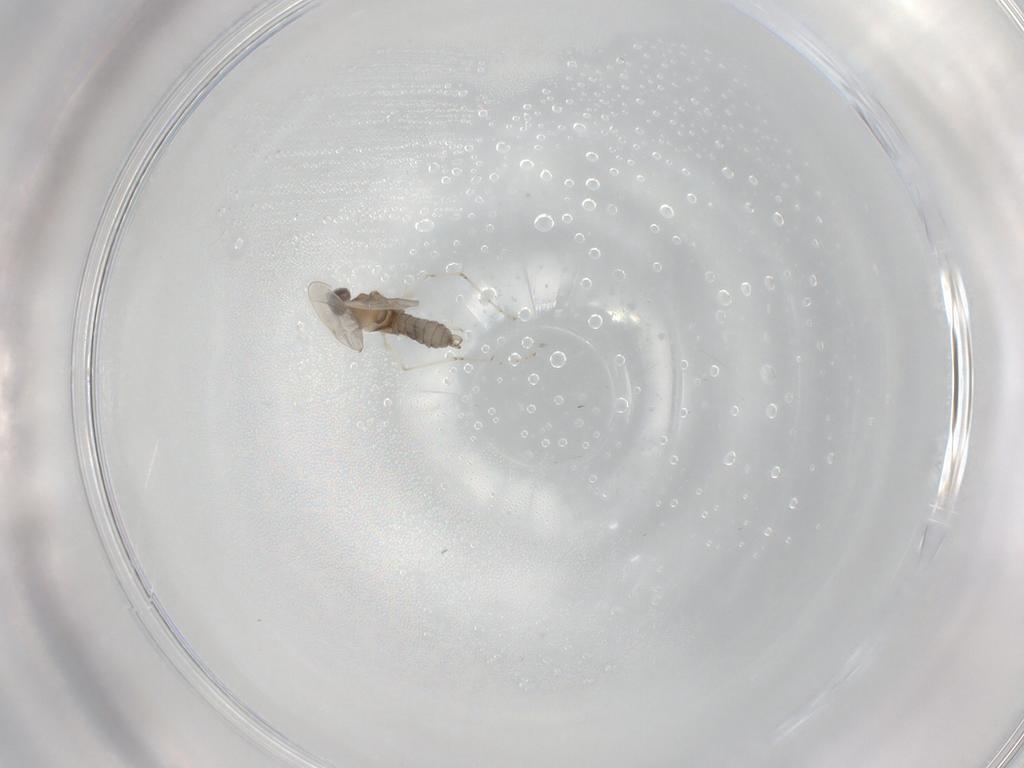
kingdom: Animalia
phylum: Arthropoda
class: Insecta
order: Diptera
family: Cecidomyiidae
